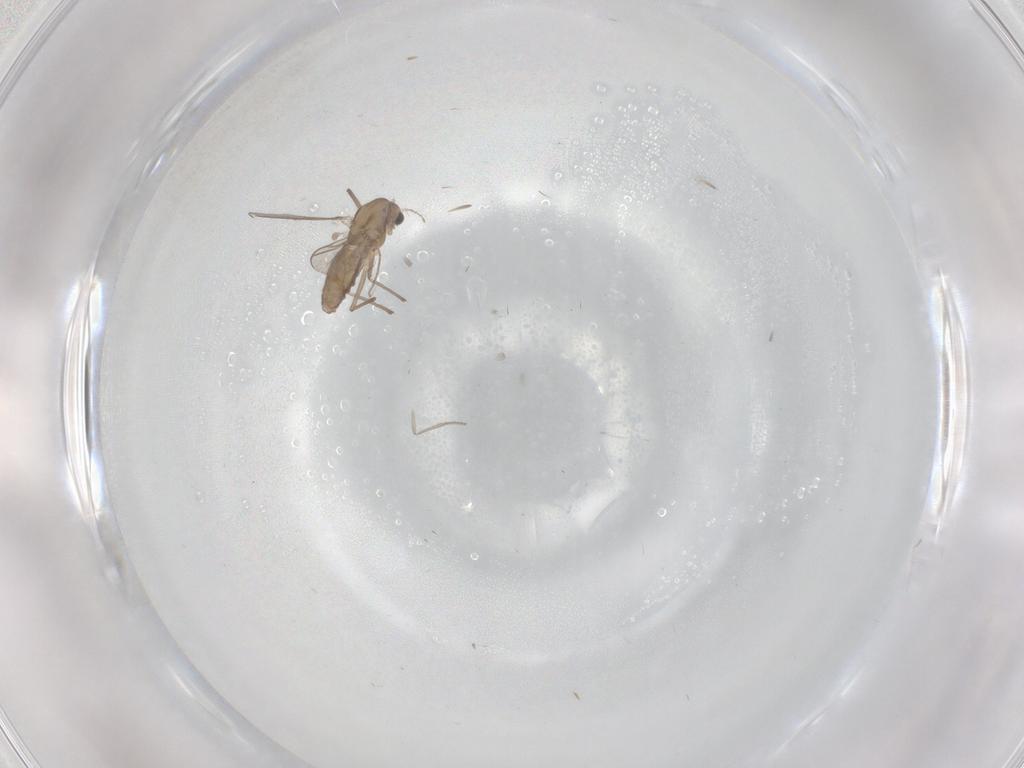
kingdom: Animalia
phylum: Arthropoda
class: Insecta
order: Diptera
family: Chironomidae
